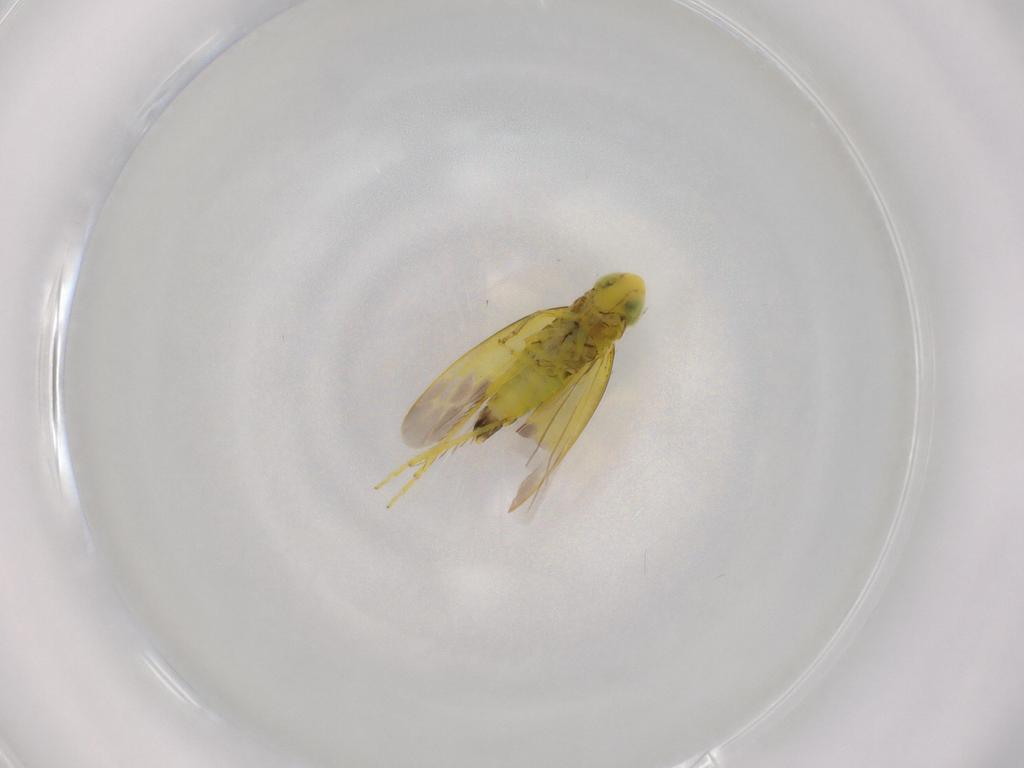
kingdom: Animalia
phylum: Arthropoda
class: Insecta
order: Hemiptera
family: Cicadellidae
